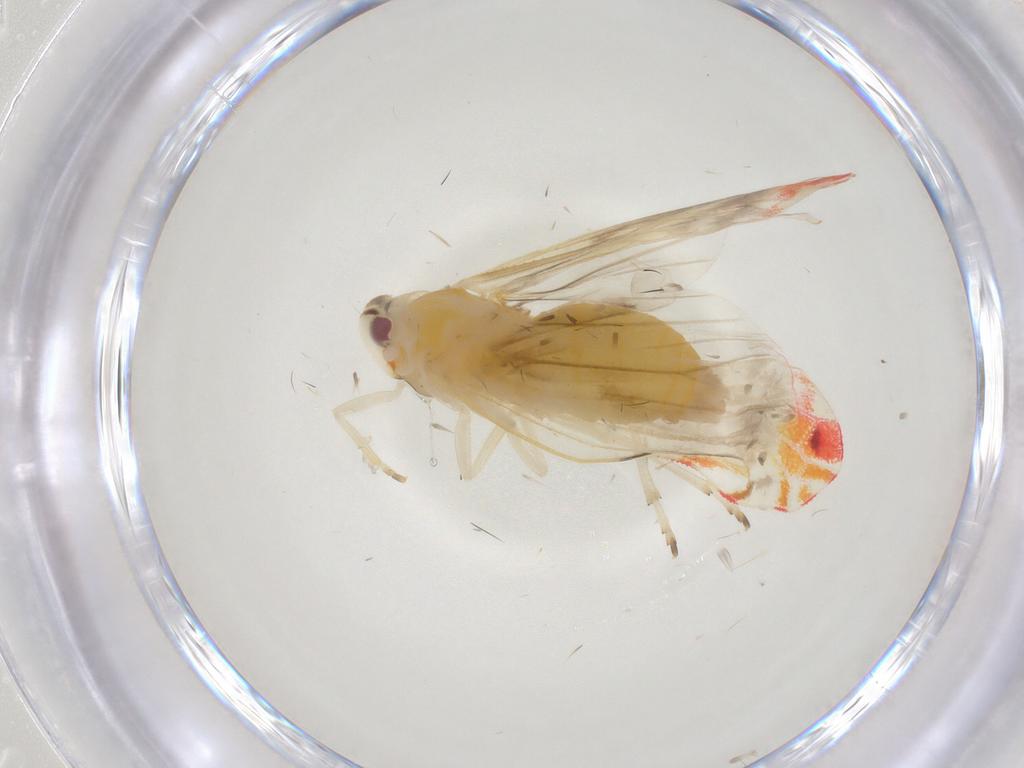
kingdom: Animalia
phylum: Arthropoda
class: Insecta
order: Hemiptera
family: Derbidae
